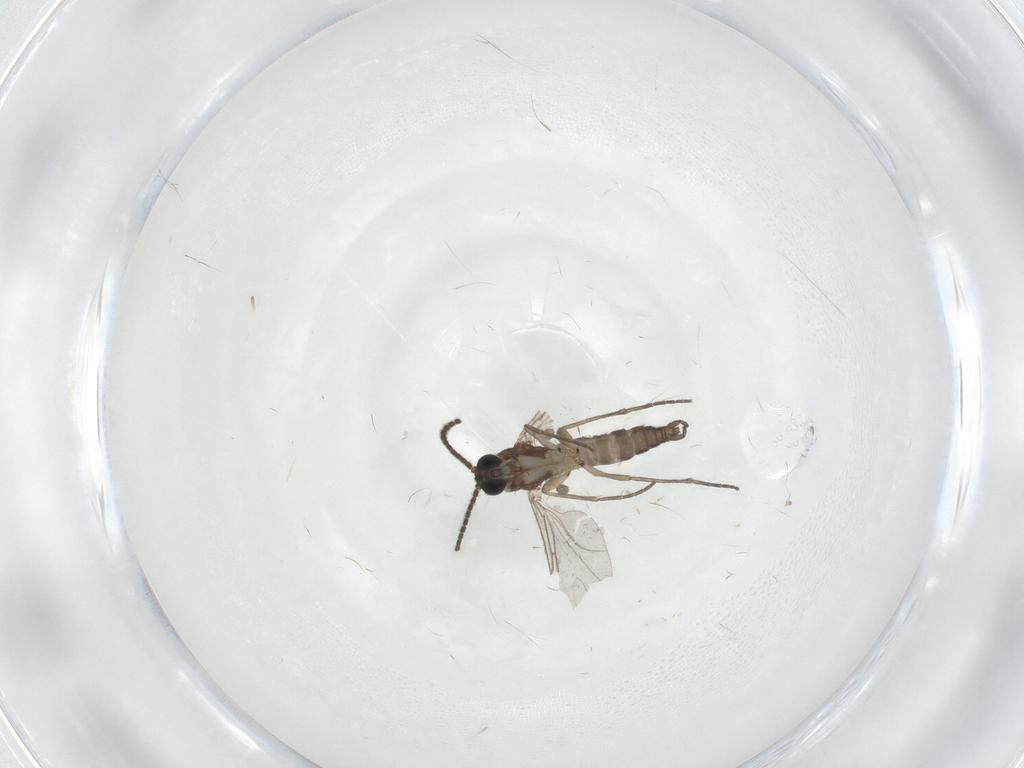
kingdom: Animalia
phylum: Arthropoda
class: Insecta
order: Diptera
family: Sciaridae
